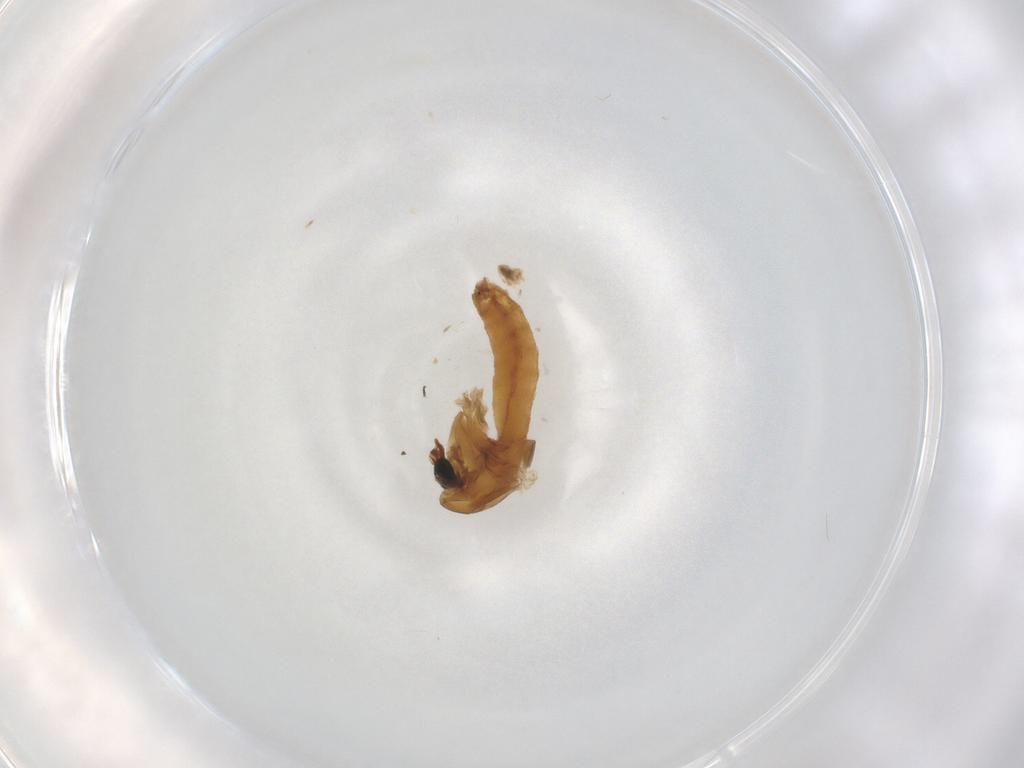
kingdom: Animalia
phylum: Arthropoda
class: Insecta
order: Diptera
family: Chironomidae
